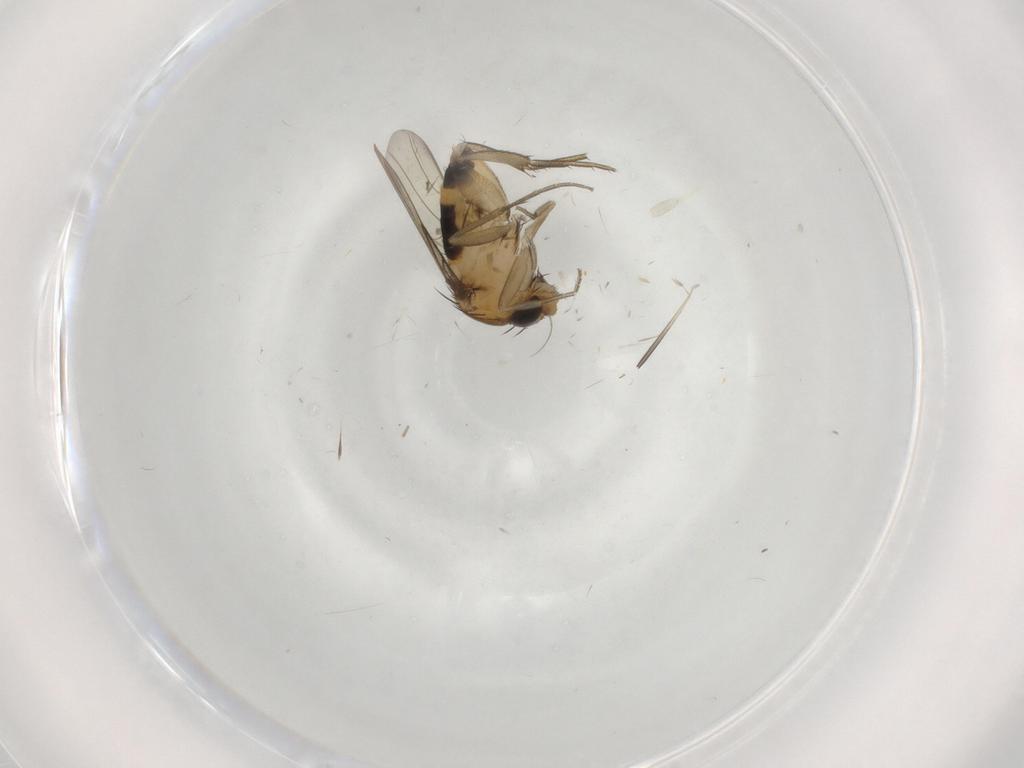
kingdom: Animalia
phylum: Arthropoda
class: Insecta
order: Diptera
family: Phoridae
